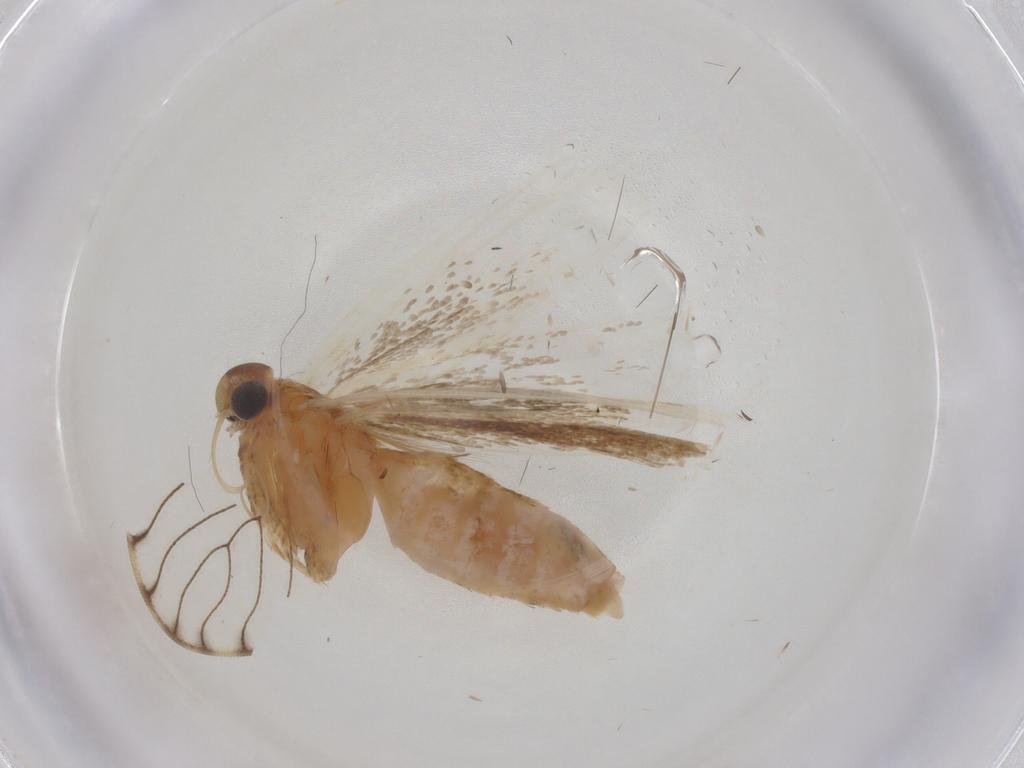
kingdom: Animalia
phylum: Arthropoda
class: Insecta
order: Lepidoptera
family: Gelechiidae
